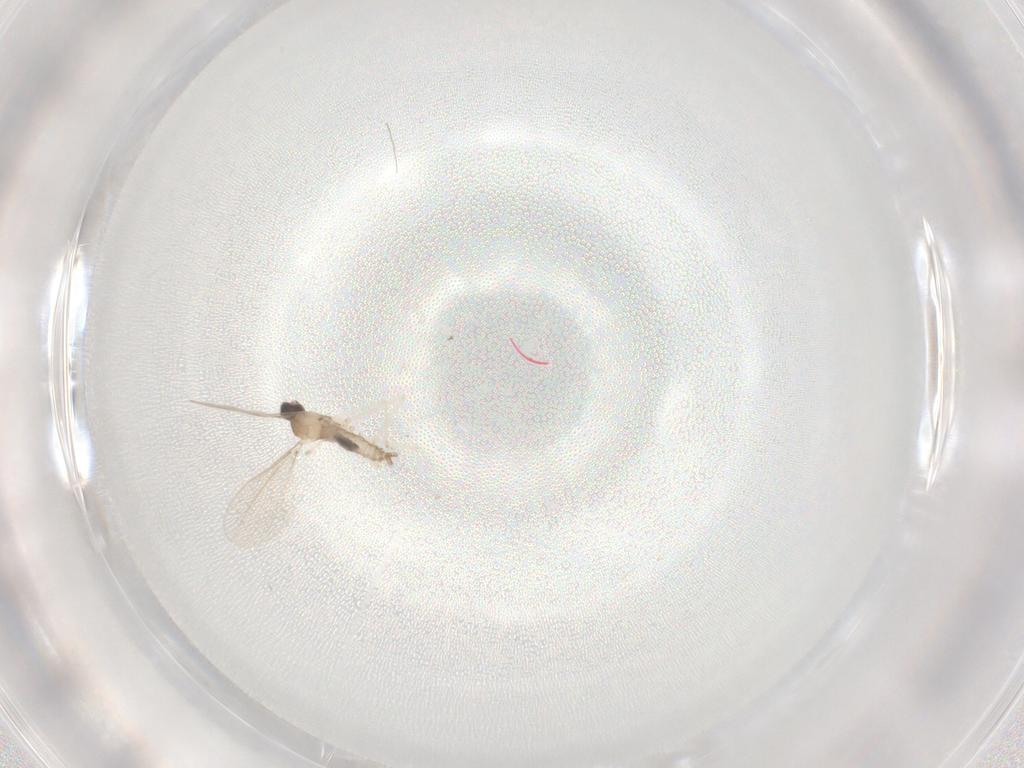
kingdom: Animalia
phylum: Arthropoda
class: Insecta
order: Diptera
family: Cecidomyiidae
